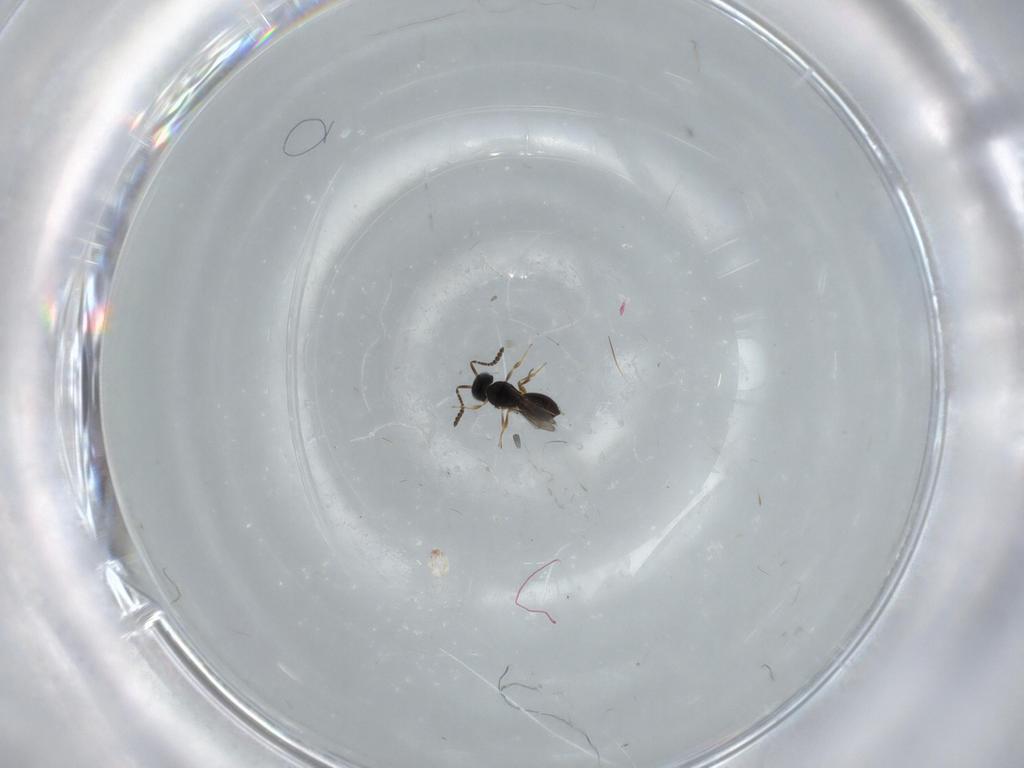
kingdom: Animalia
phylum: Arthropoda
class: Insecta
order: Hymenoptera
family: Scelionidae
